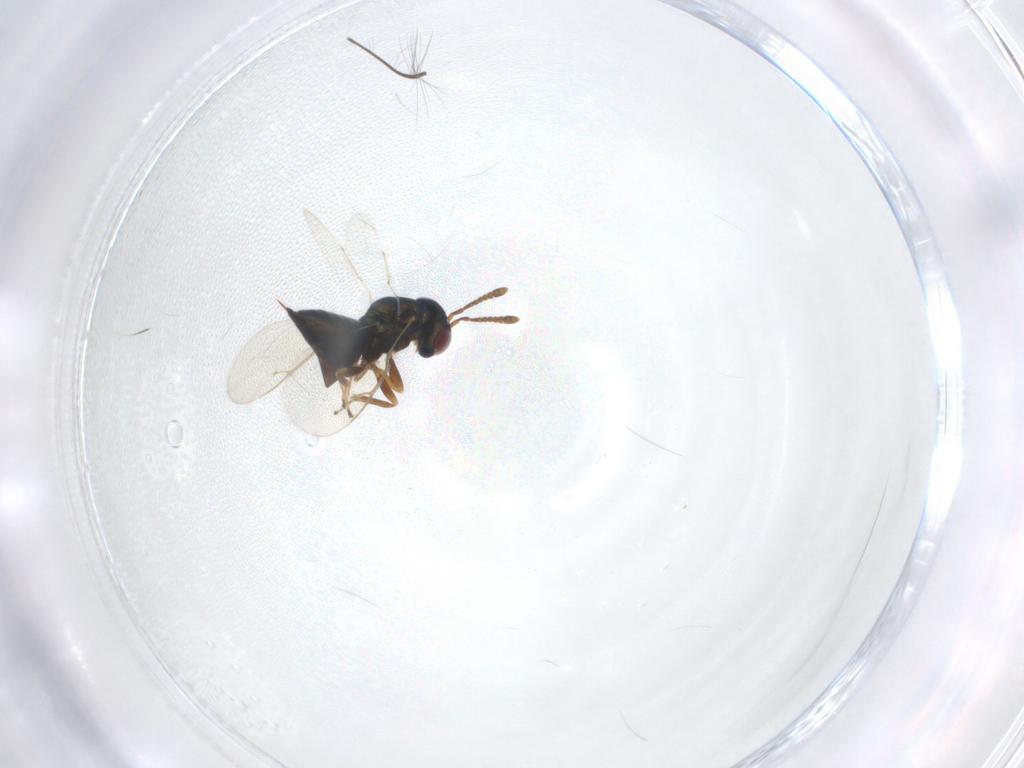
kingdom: Animalia
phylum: Arthropoda
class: Insecta
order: Hymenoptera
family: Pteromalidae
